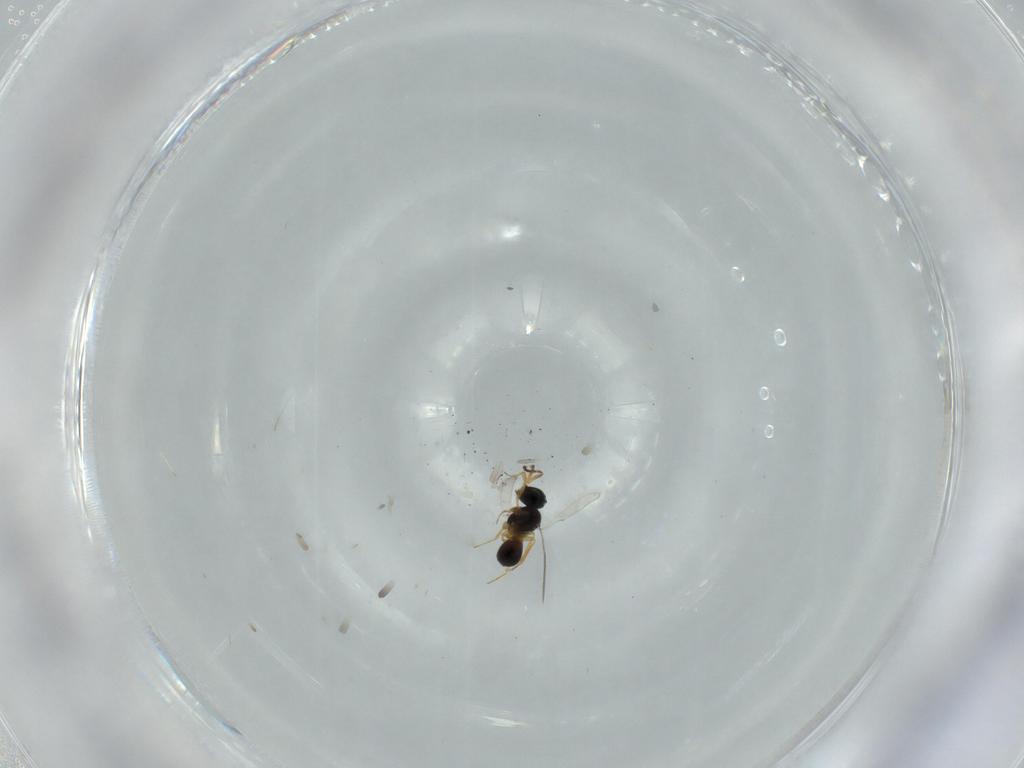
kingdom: Animalia
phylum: Arthropoda
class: Insecta
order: Hymenoptera
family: Scelionidae
